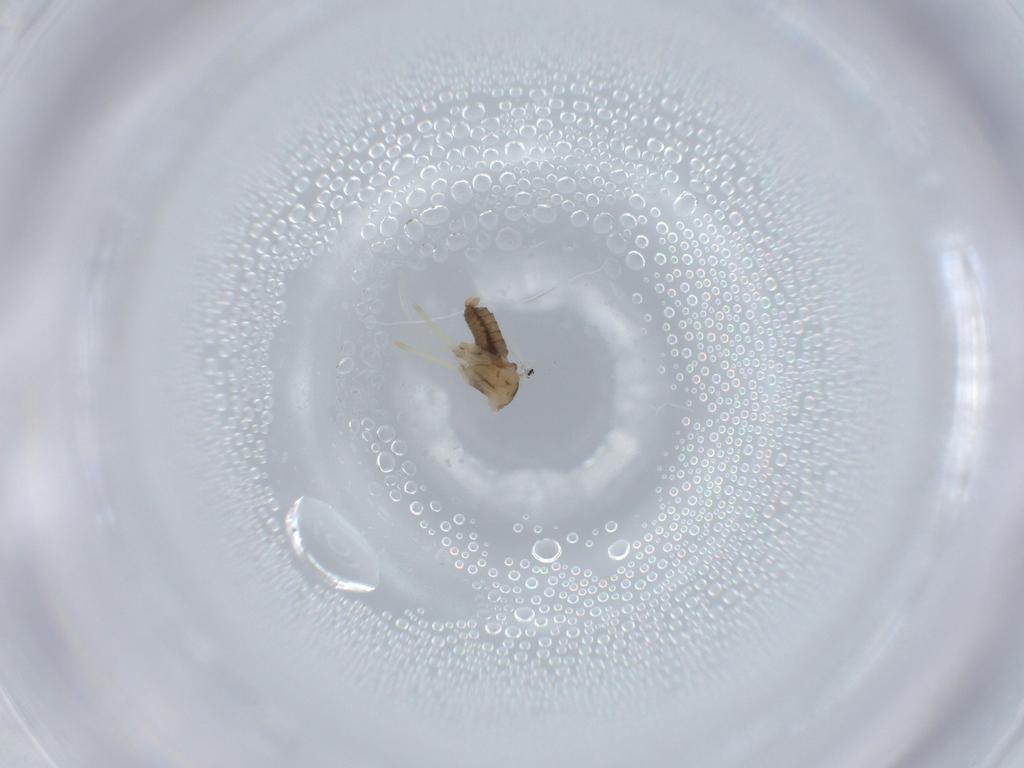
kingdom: Animalia
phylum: Arthropoda
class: Insecta
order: Diptera
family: Cecidomyiidae
